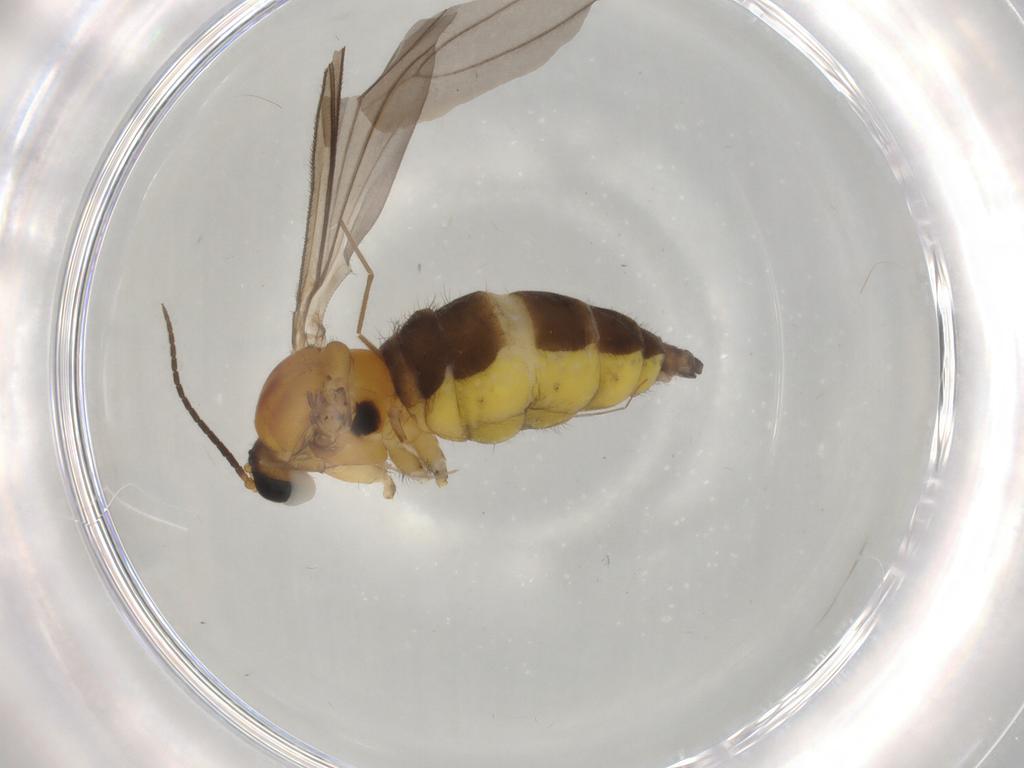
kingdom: Animalia
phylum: Arthropoda
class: Insecta
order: Diptera
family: Sciaridae
